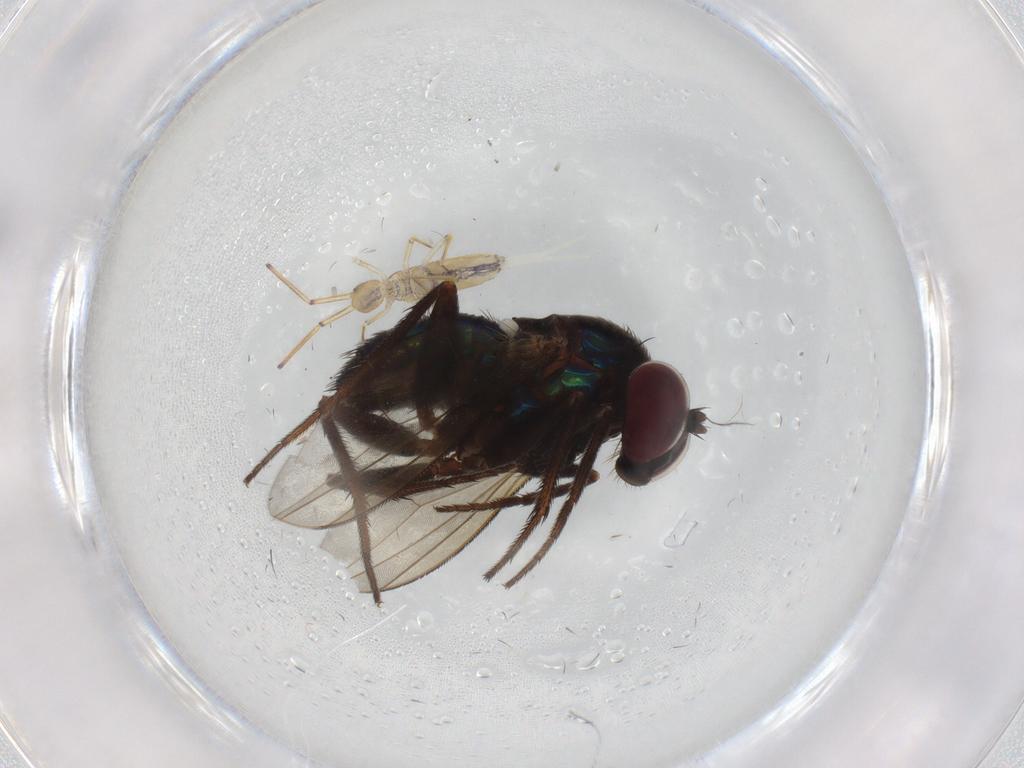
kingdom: Animalia
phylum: Arthropoda
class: Insecta
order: Diptera
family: Dolichopodidae
